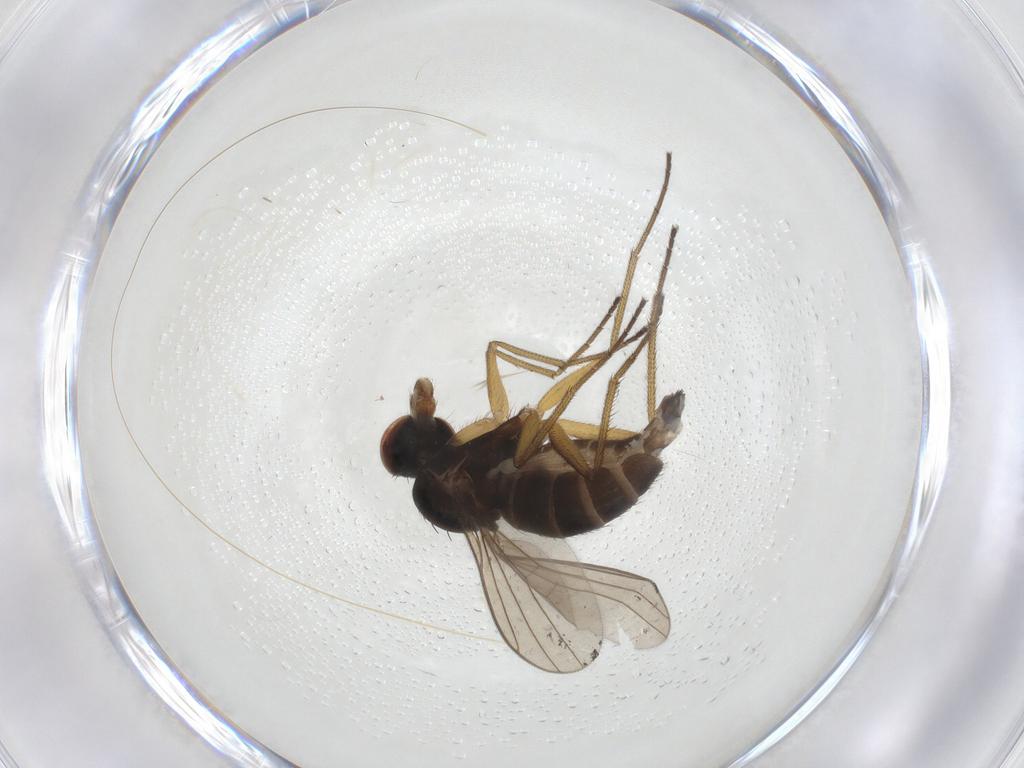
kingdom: Animalia
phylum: Arthropoda
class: Insecta
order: Diptera
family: Dolichopodidae
